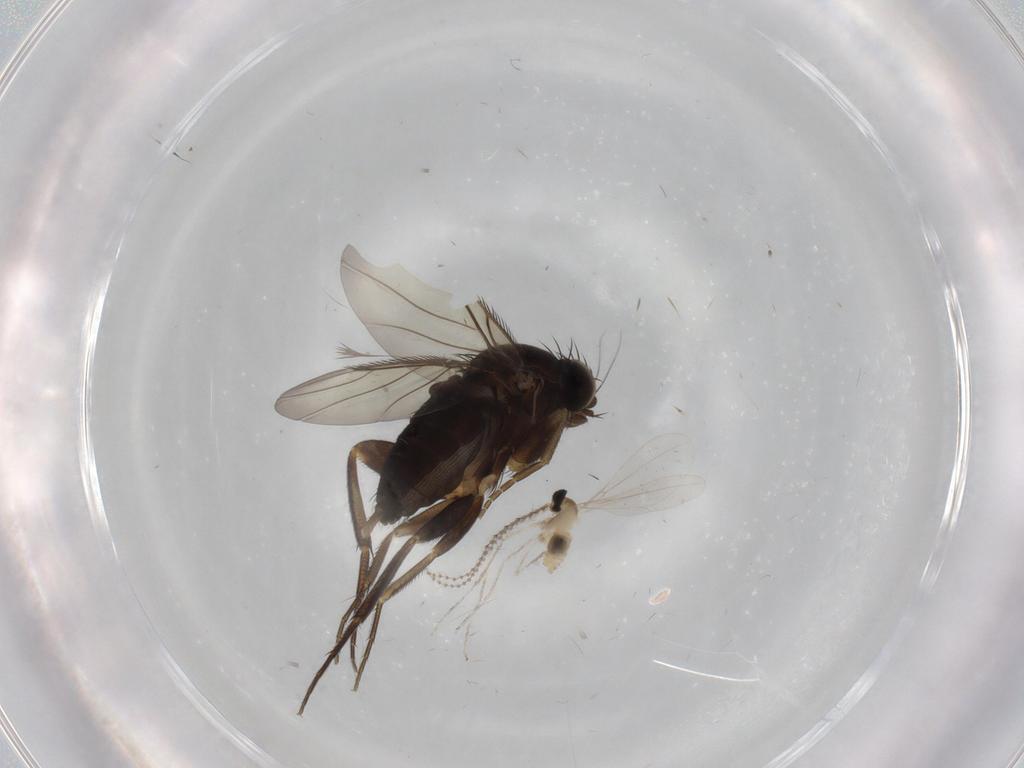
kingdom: Animalia
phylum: Arthropoda
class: Insecta
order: Diptera
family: Phoridae
